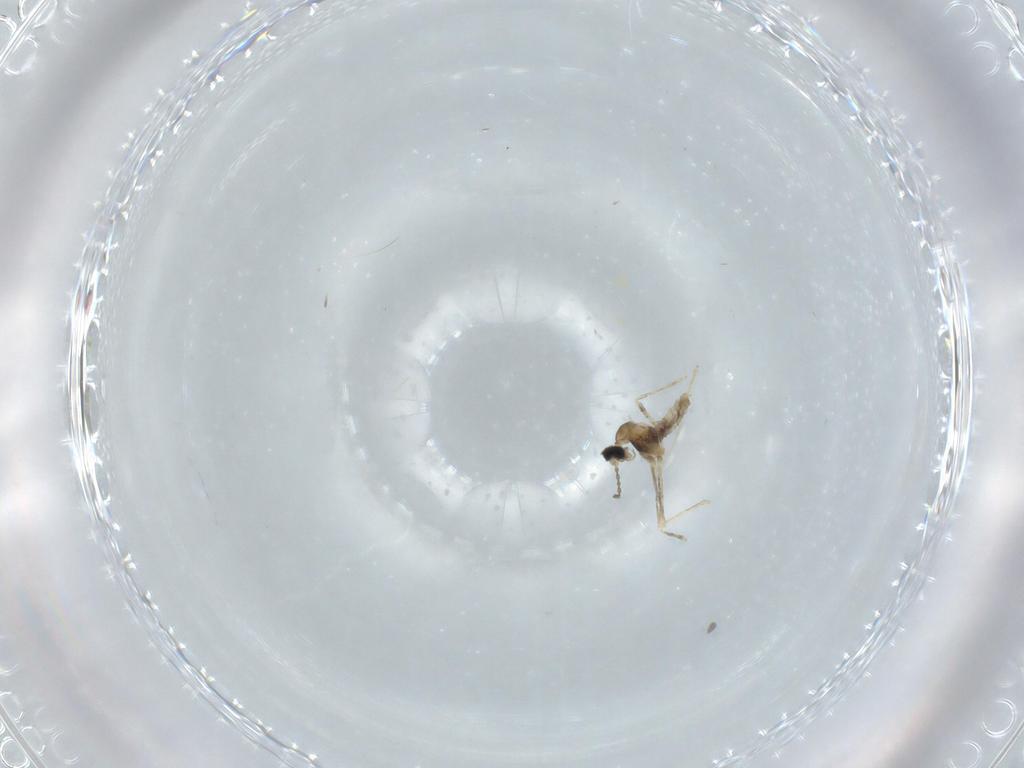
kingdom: Animalia
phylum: Arthropoda
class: Insecta
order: Diptera
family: Cecidomyiidae
